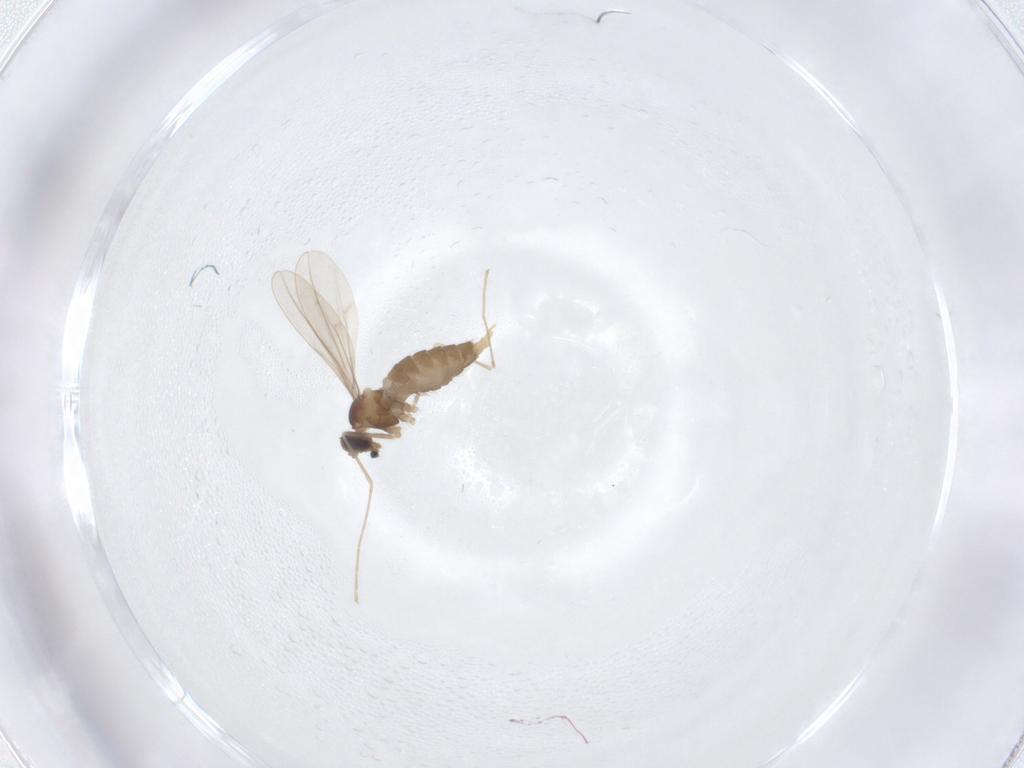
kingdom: Animalia
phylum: Arthropoda
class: Insecta
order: Diptera
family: Cecidomyiidae
